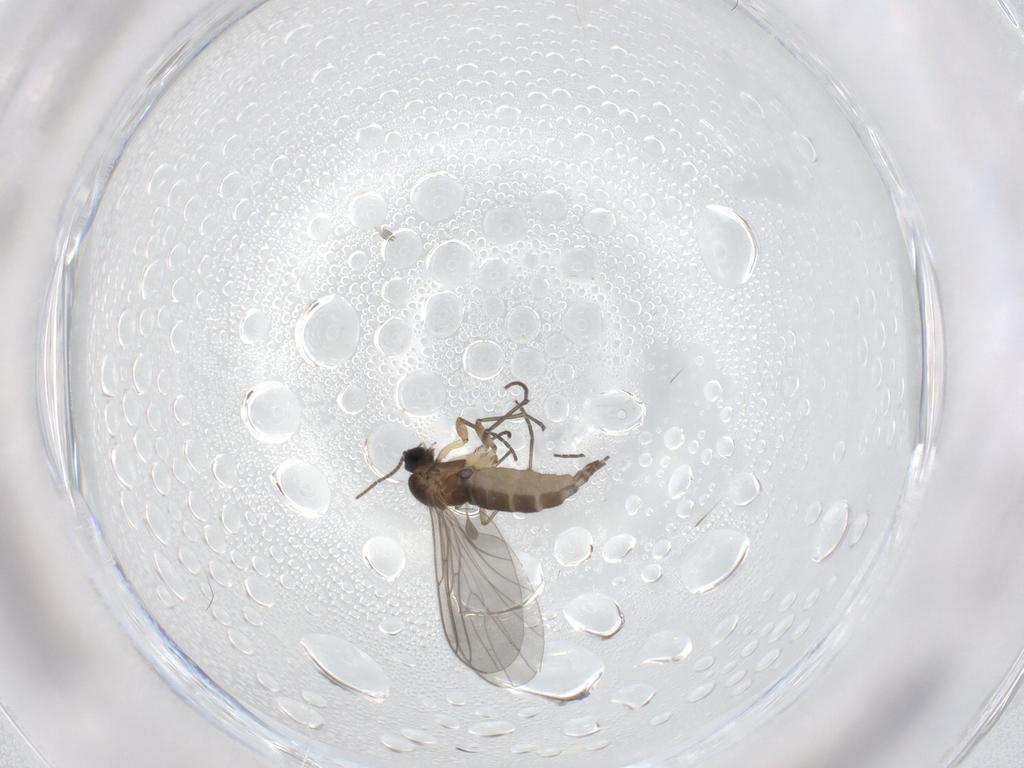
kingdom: Animalia
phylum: Arthropoda
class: Insecta
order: Diptera
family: Sciaridae
